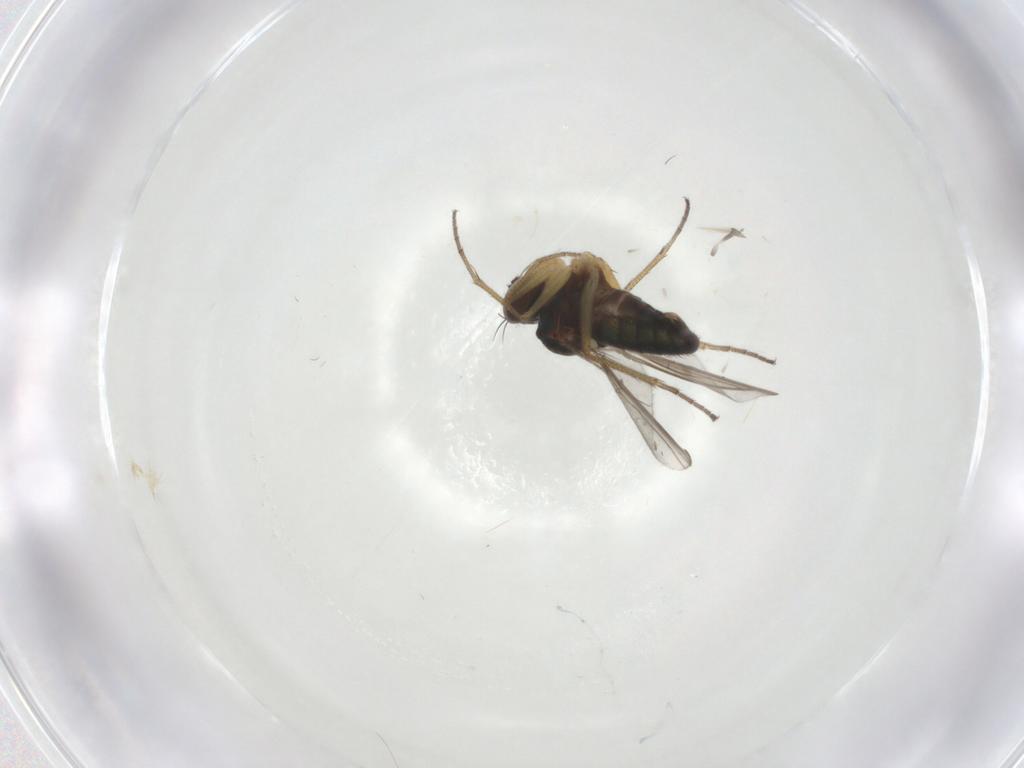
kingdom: Animalia
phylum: Arthropoda
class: Insecta
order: Diptera
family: Dolichopodidae
